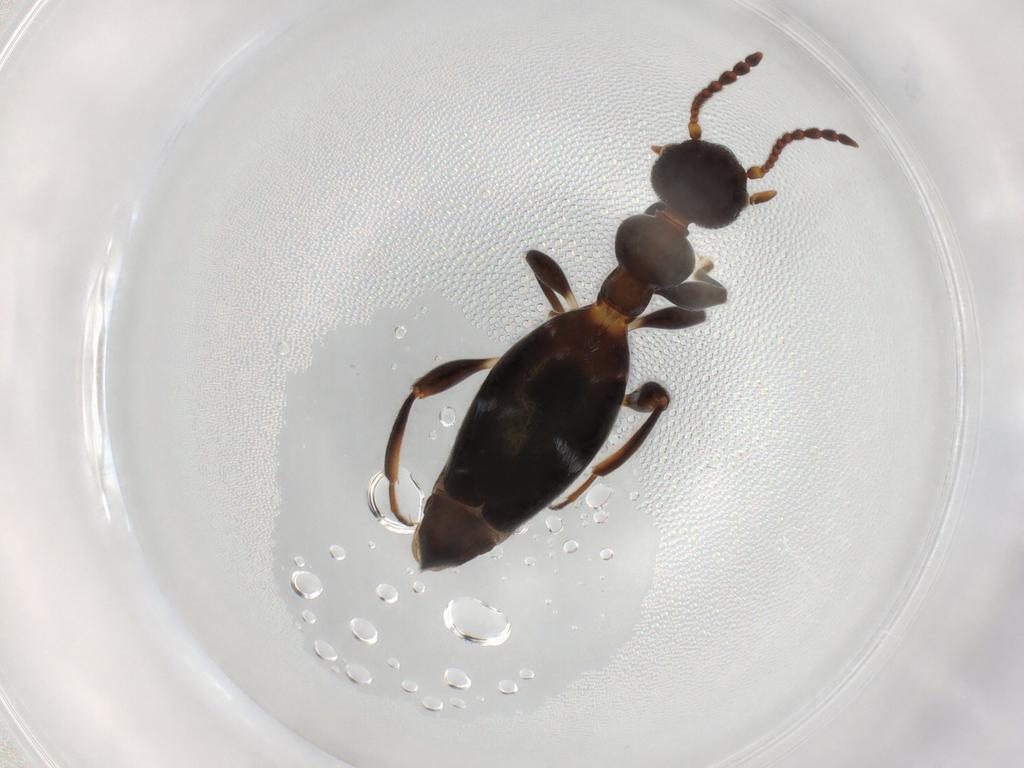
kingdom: Animalia
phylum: Arthropoda
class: Insecta
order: Coleoptera
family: Anthicidae
